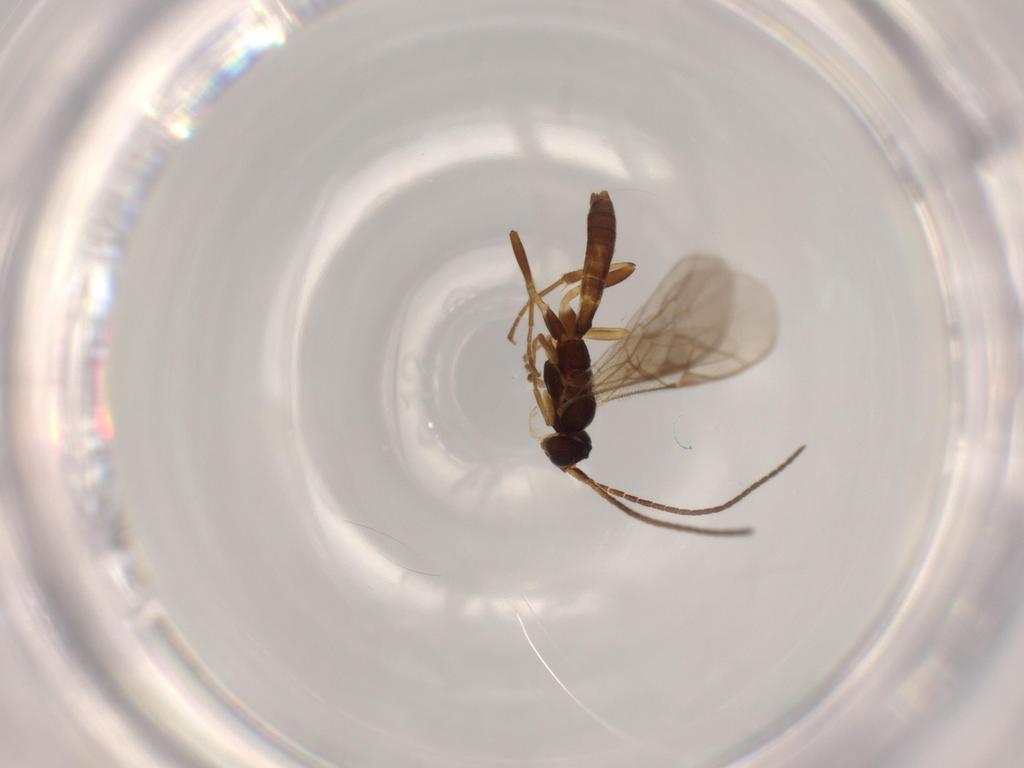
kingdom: Animalia
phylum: Arthropoda
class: Insecta
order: Hymenoptera
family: Ichneumonidae
